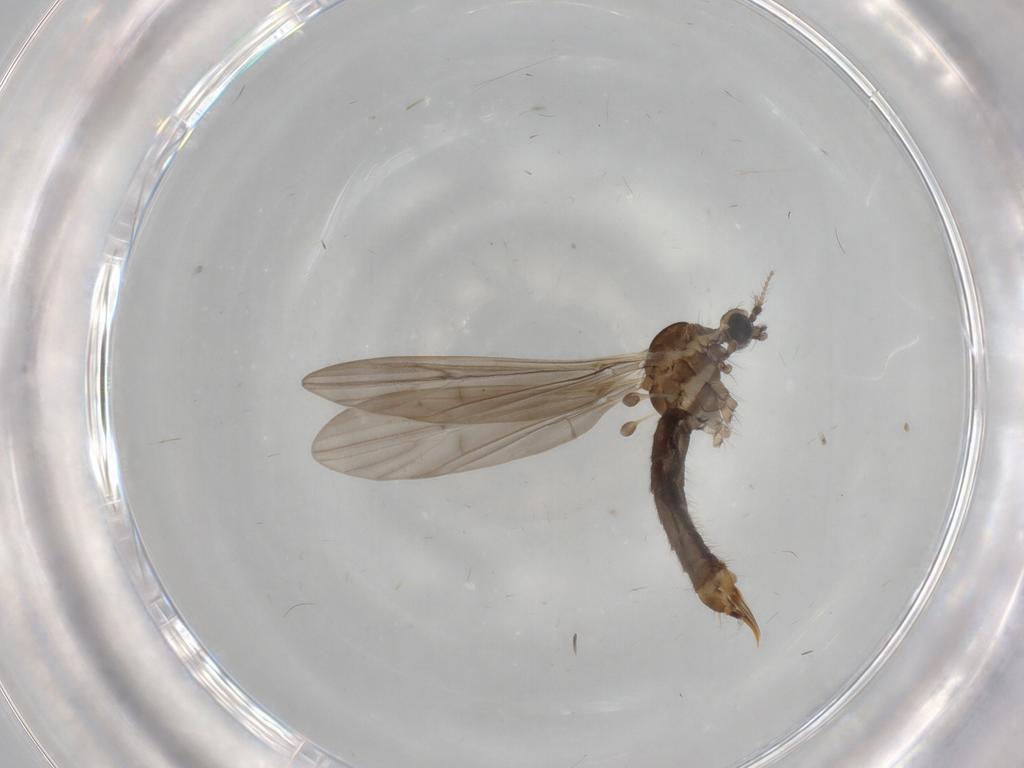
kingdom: Animalia
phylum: Arthropoda
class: Insecta
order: Diptera
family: Limoniidae
